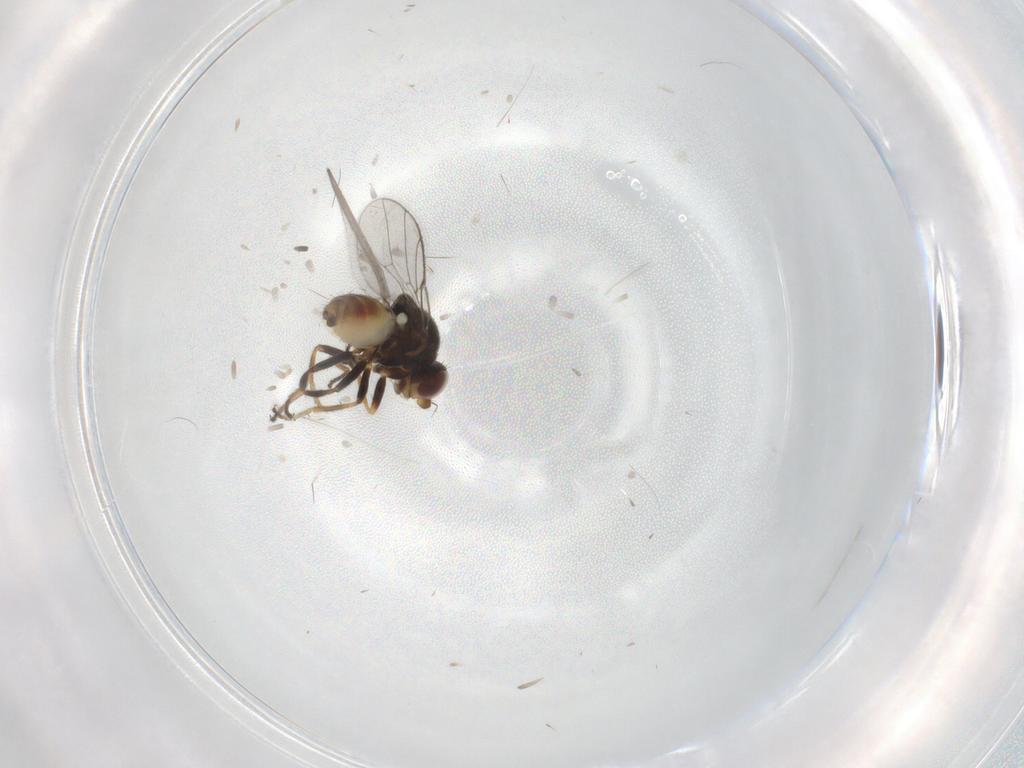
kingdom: Animalia
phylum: Arthropoda
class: Insecta
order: Diptera
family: Chloropidae
